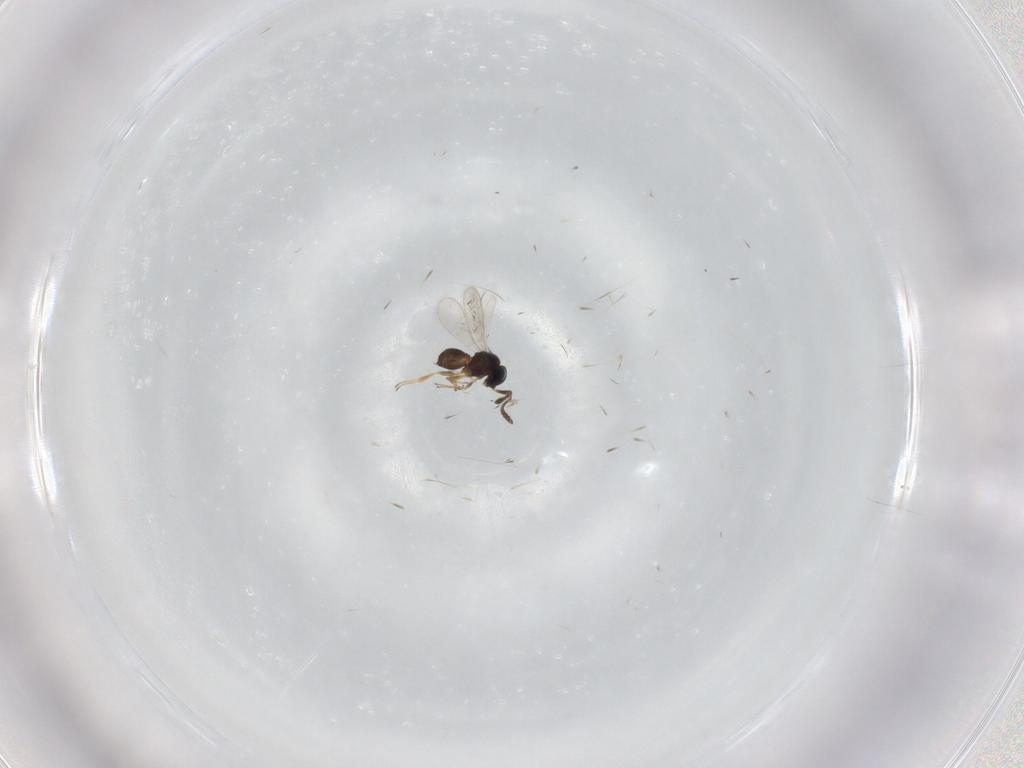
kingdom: Animalia
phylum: Arthropoda
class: Insecta
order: Hymenoptera
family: Scelionidae
